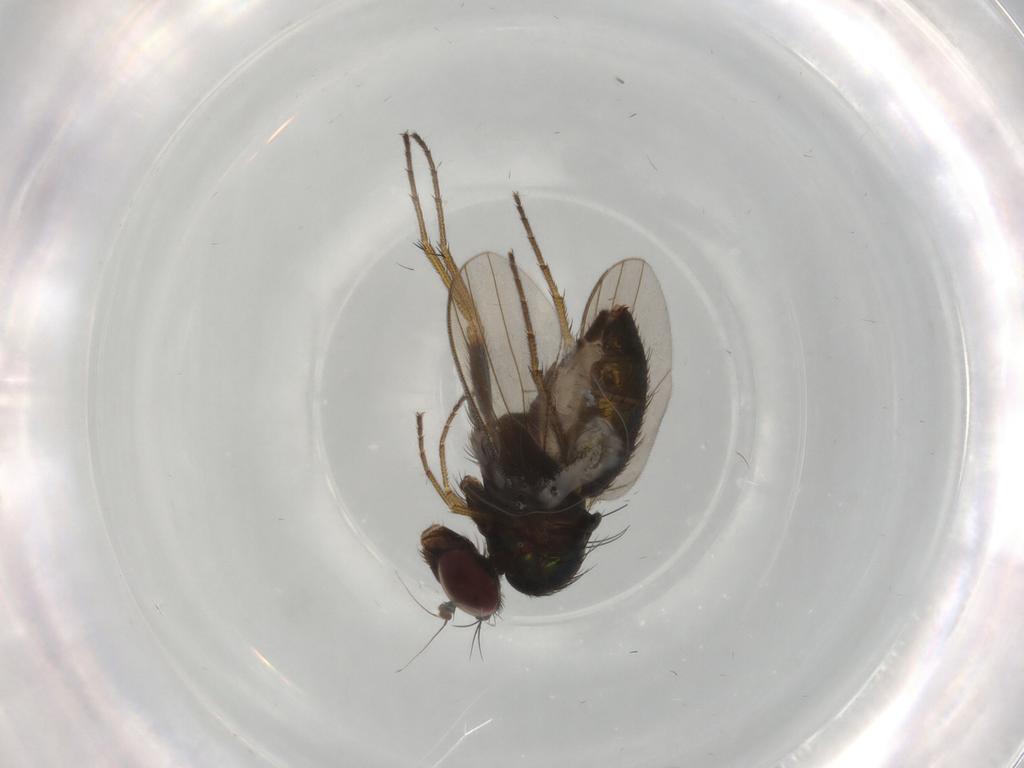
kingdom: Animalia
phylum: Arthropoda
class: Insecta
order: Diptera
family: Dolichopodidae
